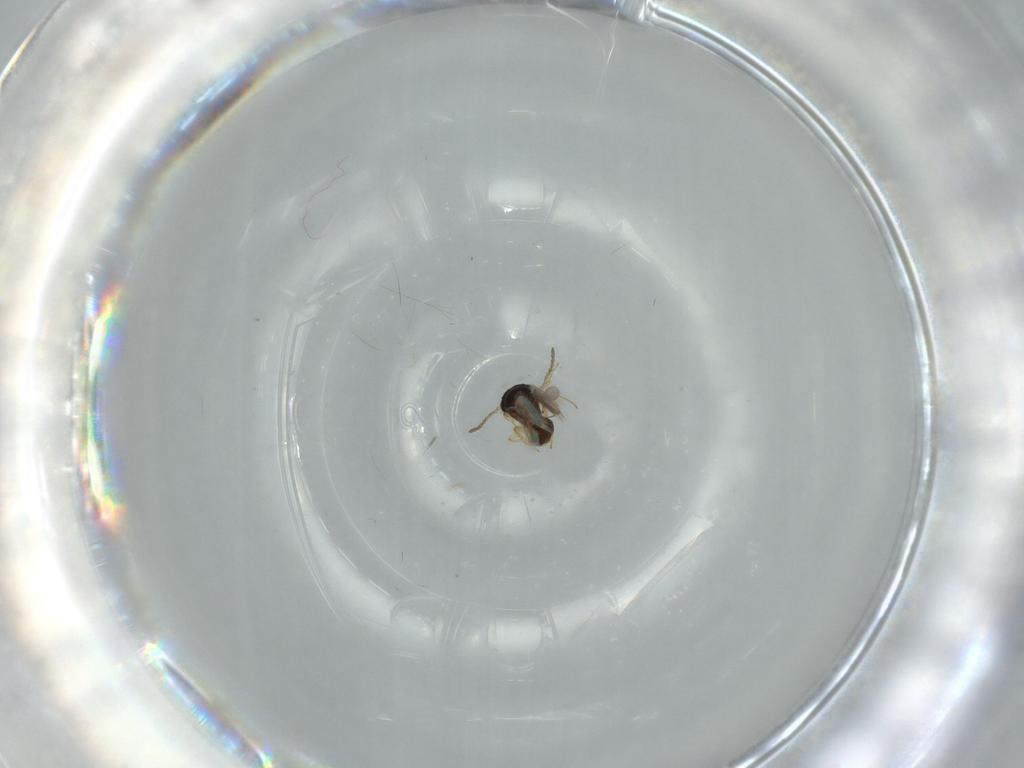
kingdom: Animalia
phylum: Arthropoda
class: Insecta
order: Hymenoptera
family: Scelionidae
